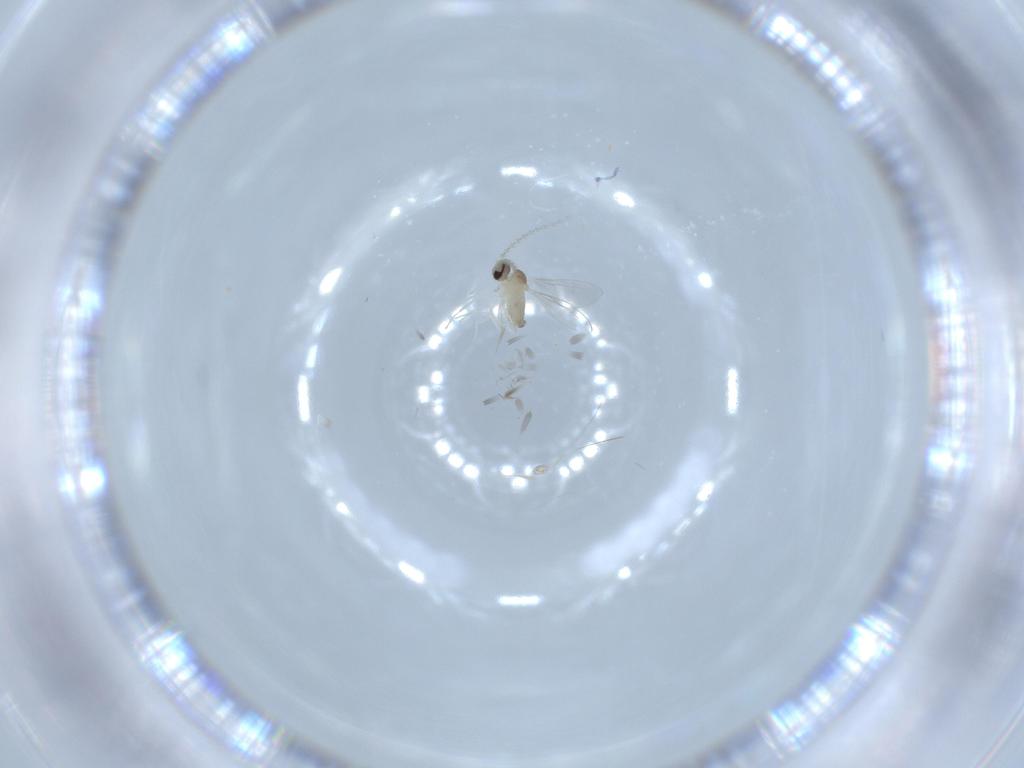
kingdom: Animalia
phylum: Arthropoda
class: Insecta
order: Diptera
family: Cecidomyiidae
